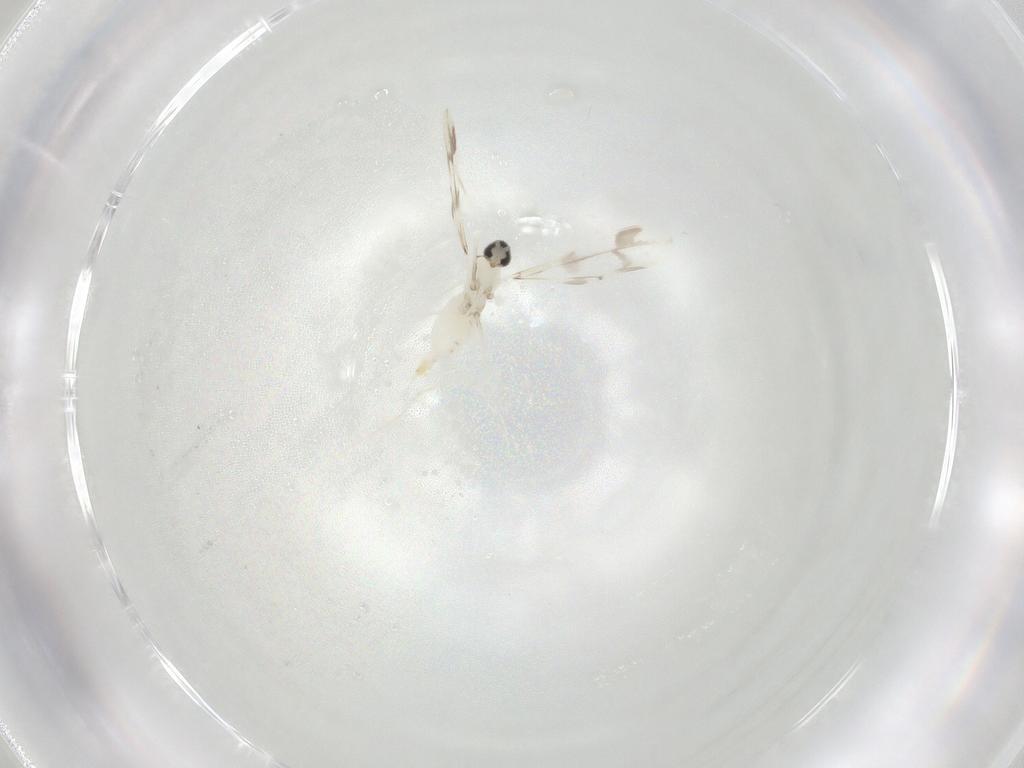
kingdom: Animalia
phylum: Arthropoda
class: Insecta
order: Diptera
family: Cecidomyiidae
